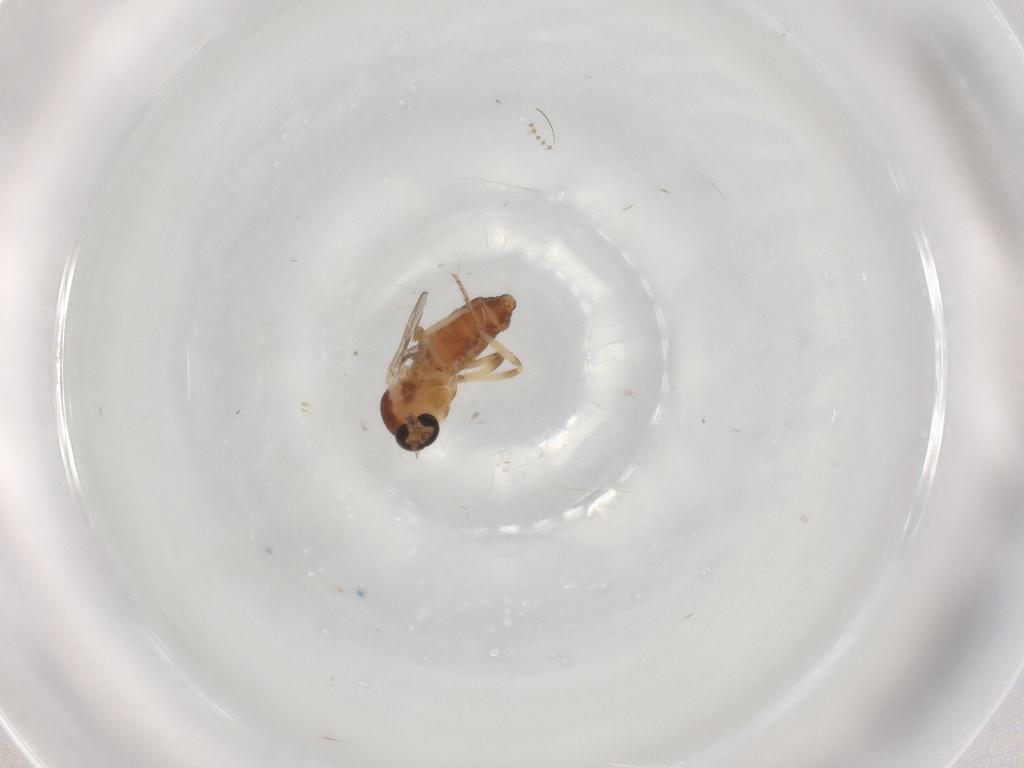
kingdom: Animalia
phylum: Arthropoda
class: Insecta
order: Diptera
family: Ceratopogonidae
